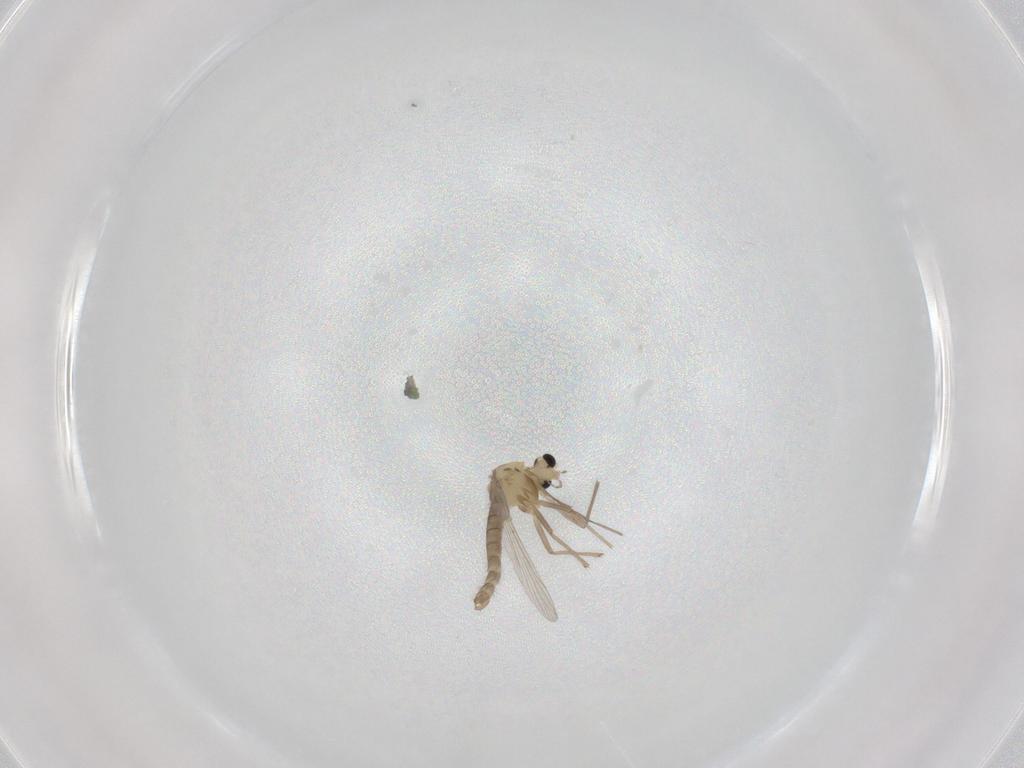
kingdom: Animalia
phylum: Arthropoda
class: Insecta
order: Diptera
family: Chironomidae
